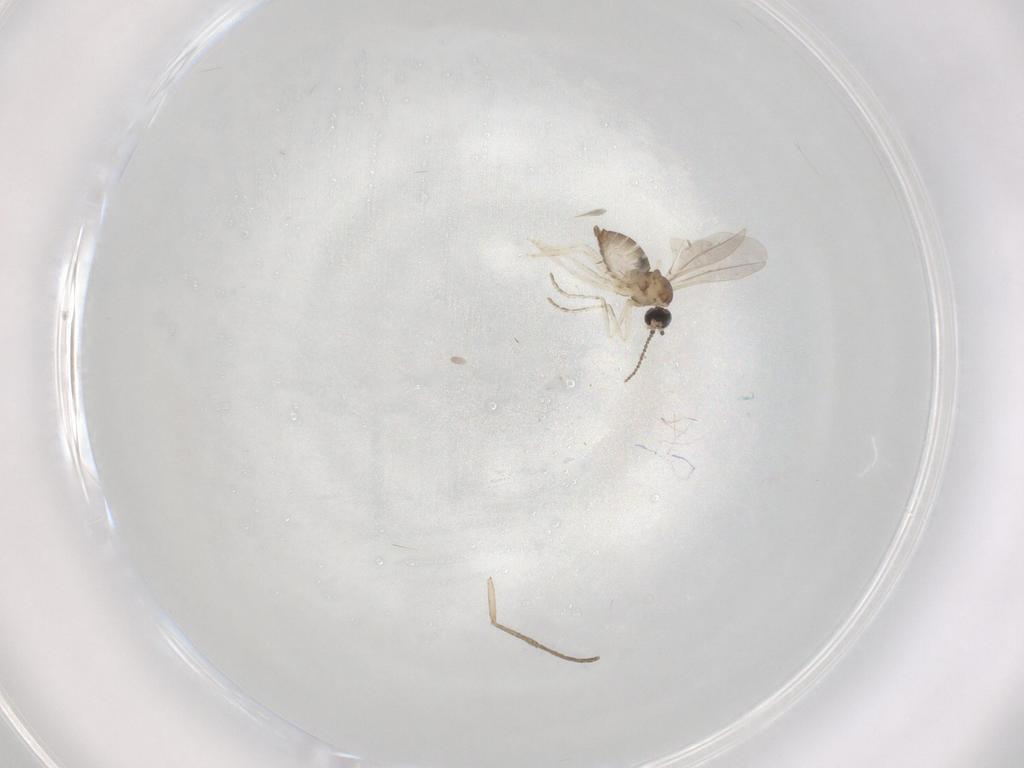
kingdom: Animalia
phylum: Arthropoda
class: Insecta
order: Diptera
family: Cecidomyiidae
